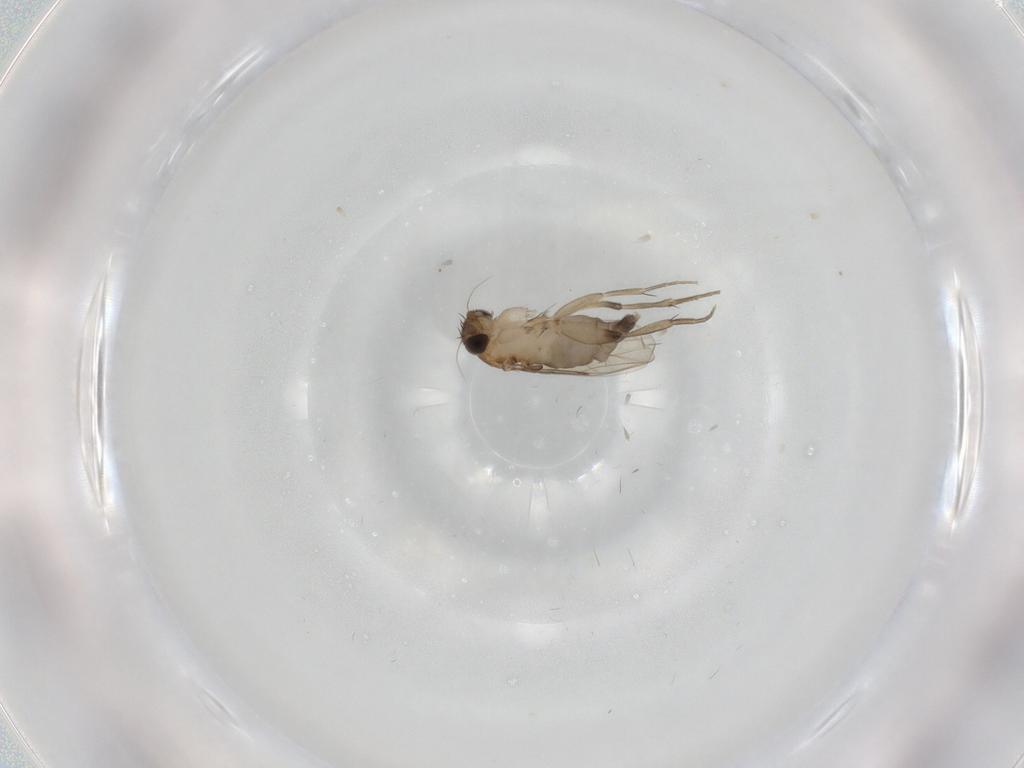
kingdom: Animalia
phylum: Arthropoda
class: Insecta
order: Diptera
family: Phoridae
